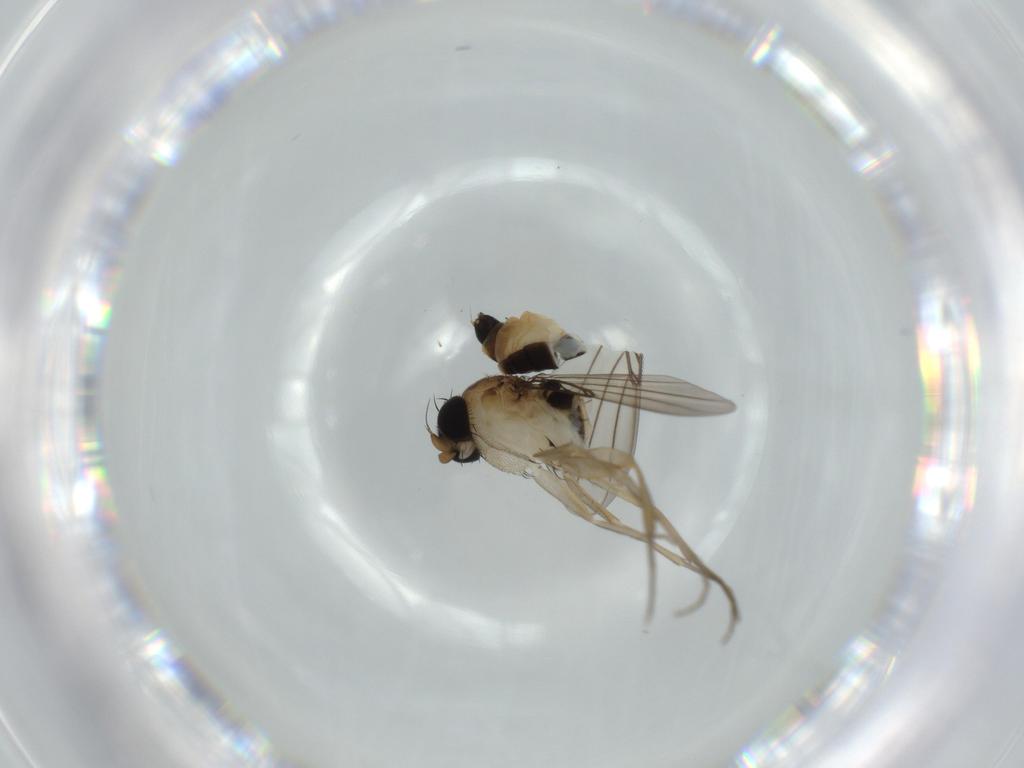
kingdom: Animalia
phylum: Arthropoda
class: Insecta
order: Diptera
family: Phoridae
